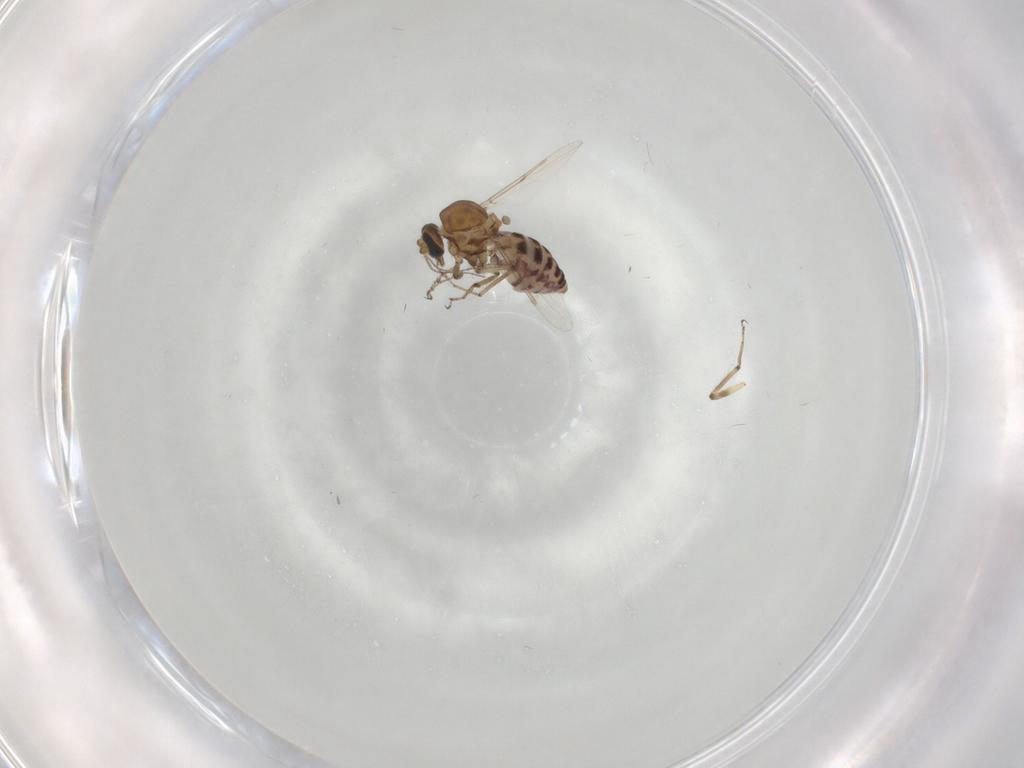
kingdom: Animalia
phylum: Arthropoda
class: Insecta
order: Diptera
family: Ceratopogonidae
